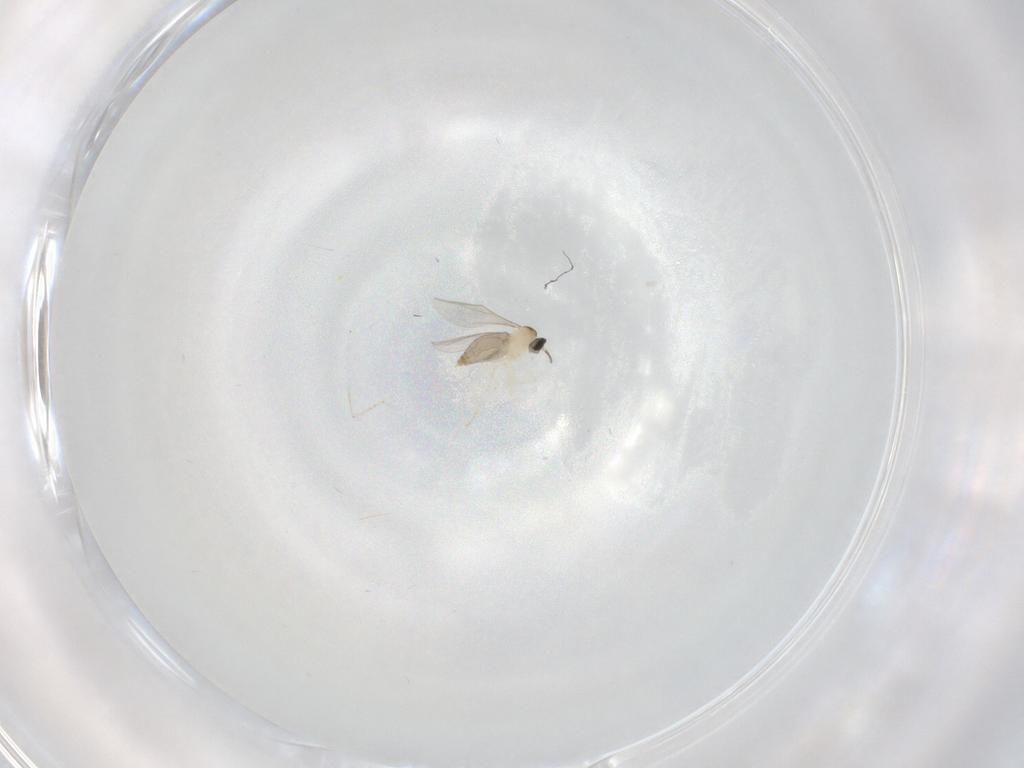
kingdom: Animalia
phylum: Arthropoda
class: Insecta
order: Diptera
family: Cecidomyiidae
